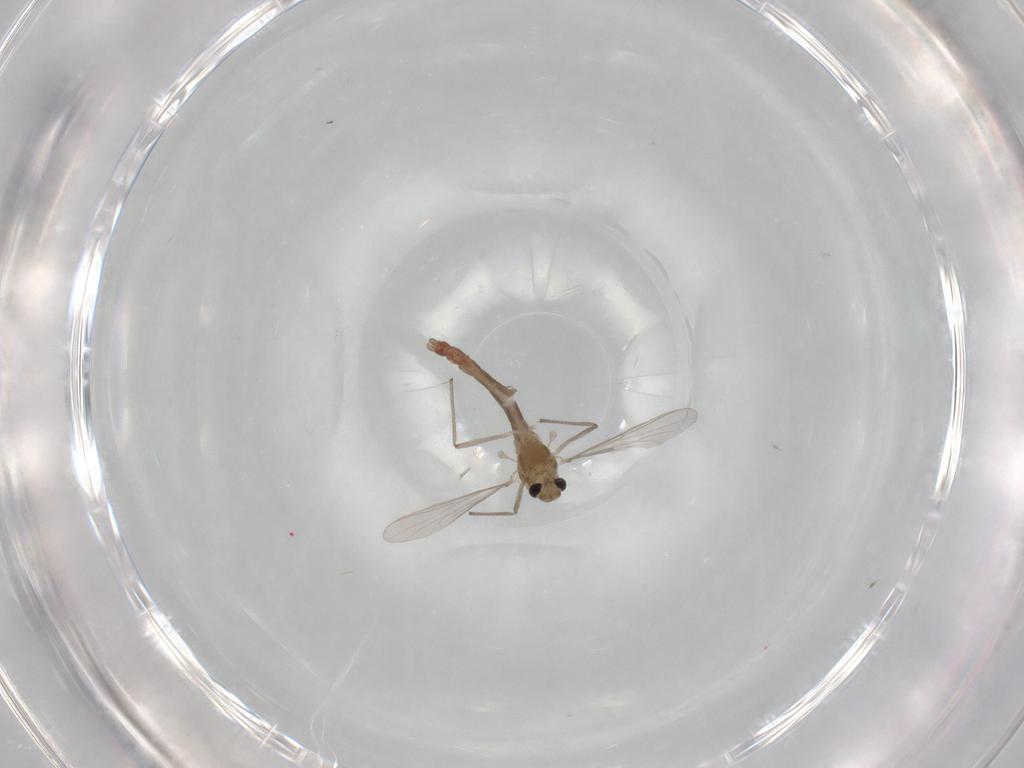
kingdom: Animalia
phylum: Arthropoda
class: Insecta
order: Diptera
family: Chironomidae
